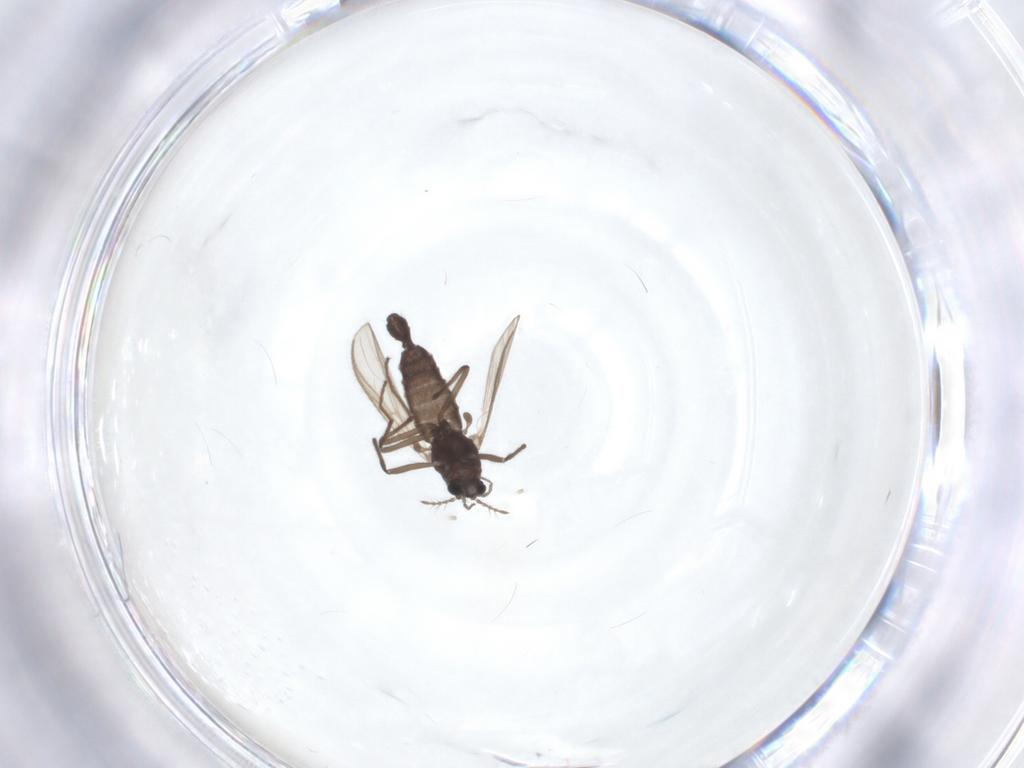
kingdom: Animalia
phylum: Arthropoda
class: Insecta
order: Diptera
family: Chironomidae
